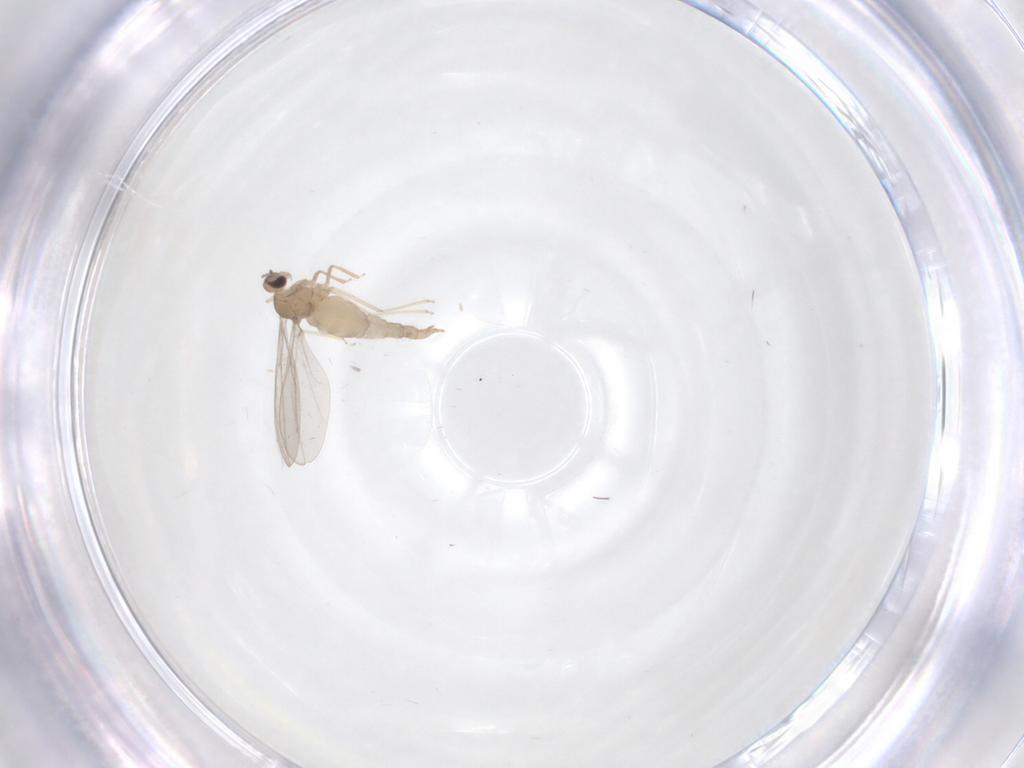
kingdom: Animalia
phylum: Arthropoda
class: Insecta
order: Diptera
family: Cecidomyiidae
